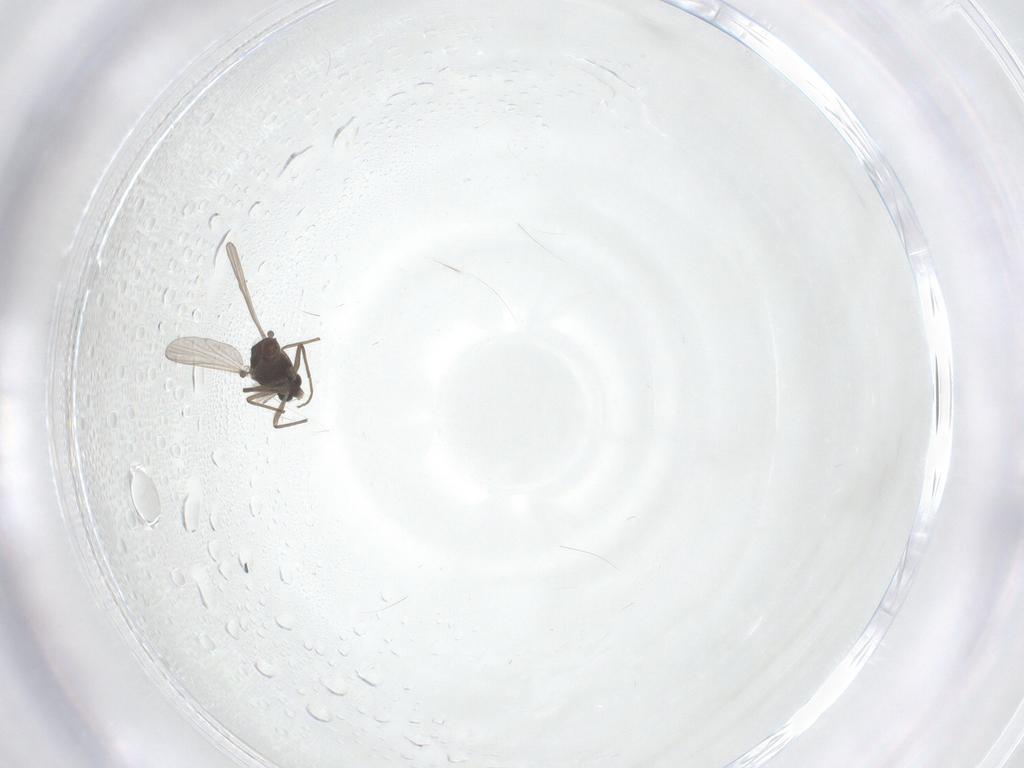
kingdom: Animalia
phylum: Arthropoda
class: Insecta
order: Diptera
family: Chironomidae
